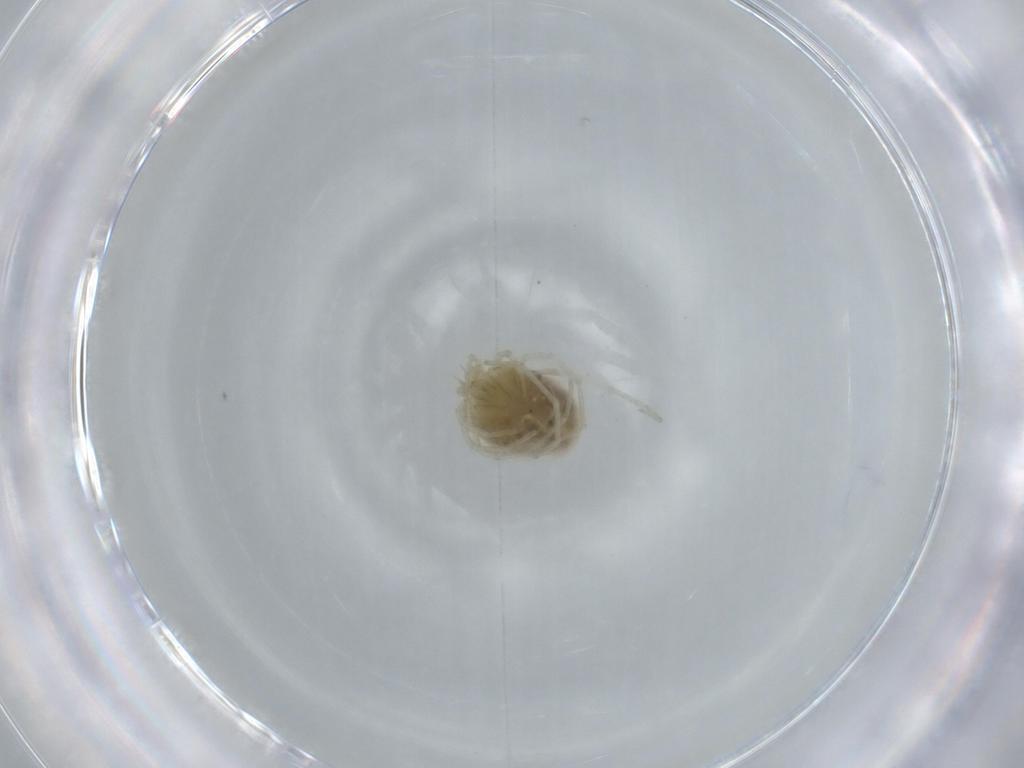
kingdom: Animalia
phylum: Arthropoda
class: Arachnida
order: Trombidiformes
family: Hygrobatidae
